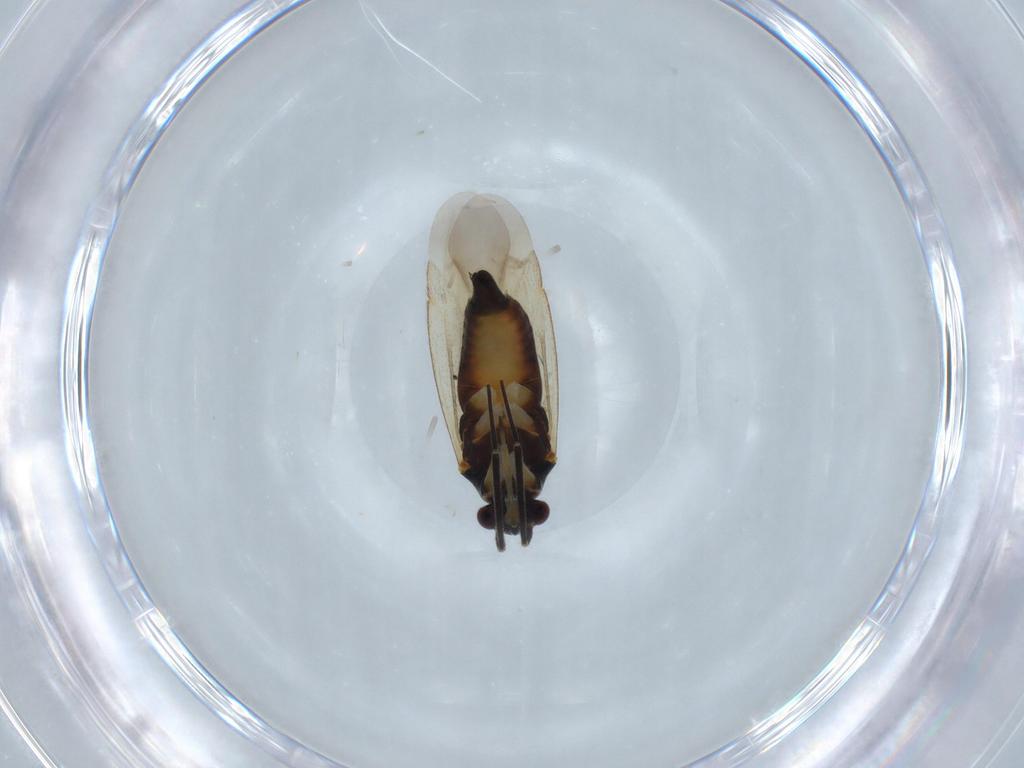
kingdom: Animalia
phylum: Arthropoda
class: Insecta
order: Hemiptera
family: Miridae
